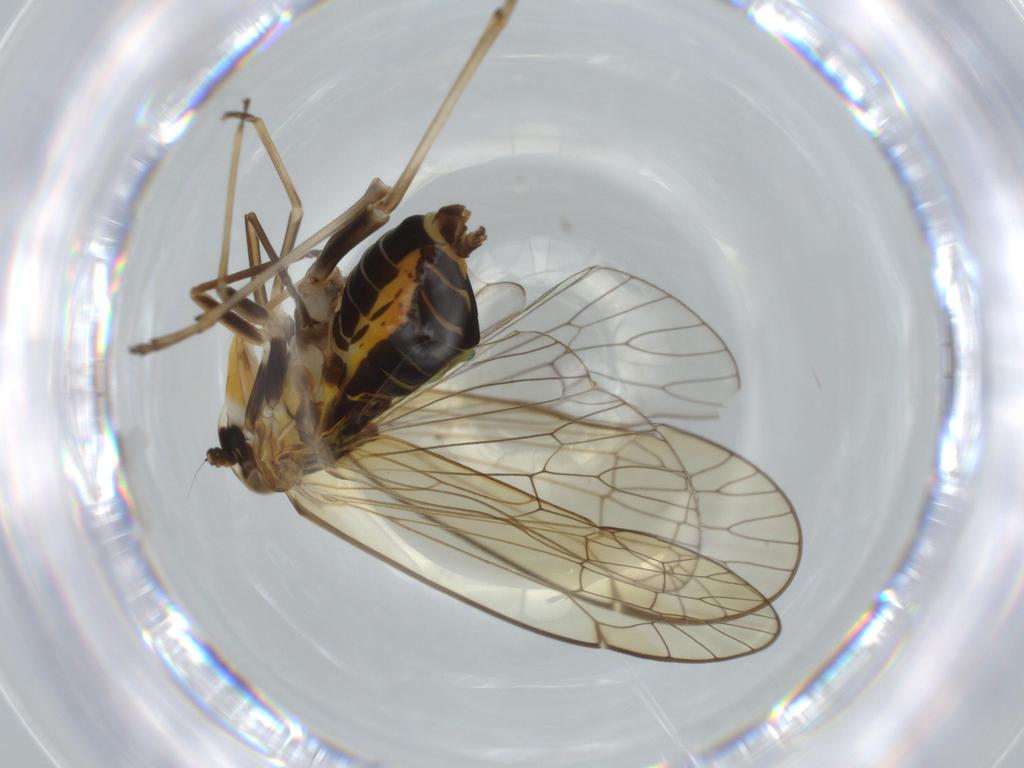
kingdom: Animalia
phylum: Arthropoda
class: Insecta
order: Hemiptera
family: Kinnaridae
